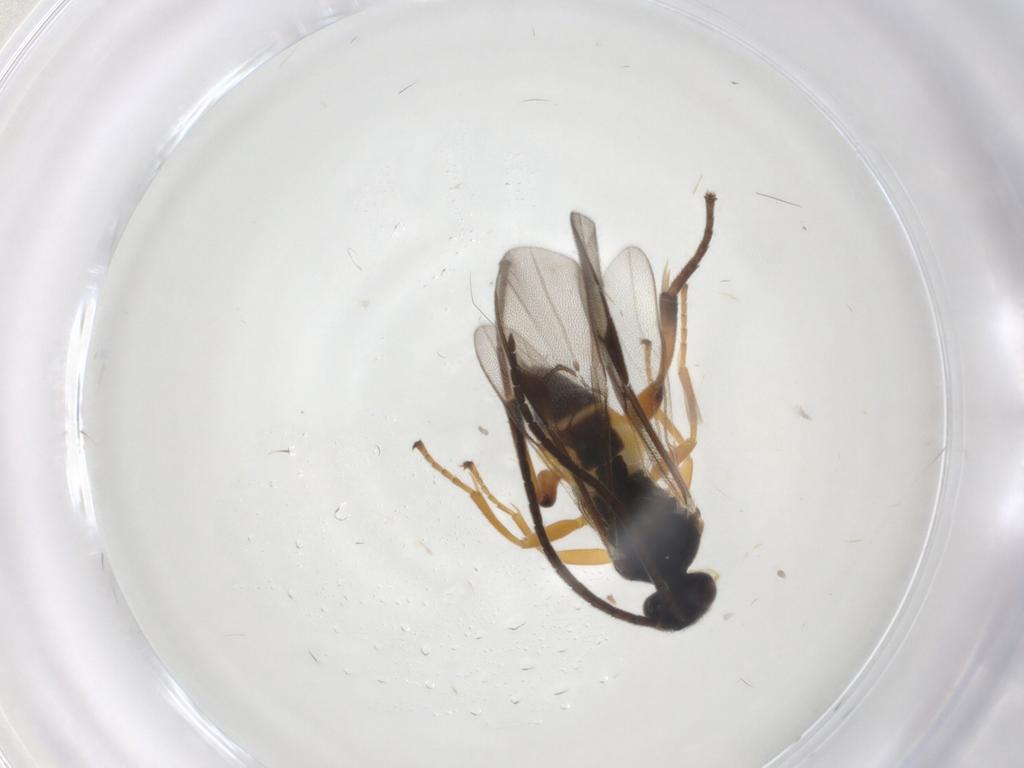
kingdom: Animalia
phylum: Arthropoda
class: Insecta
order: Hymenoptera
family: Braconidae
